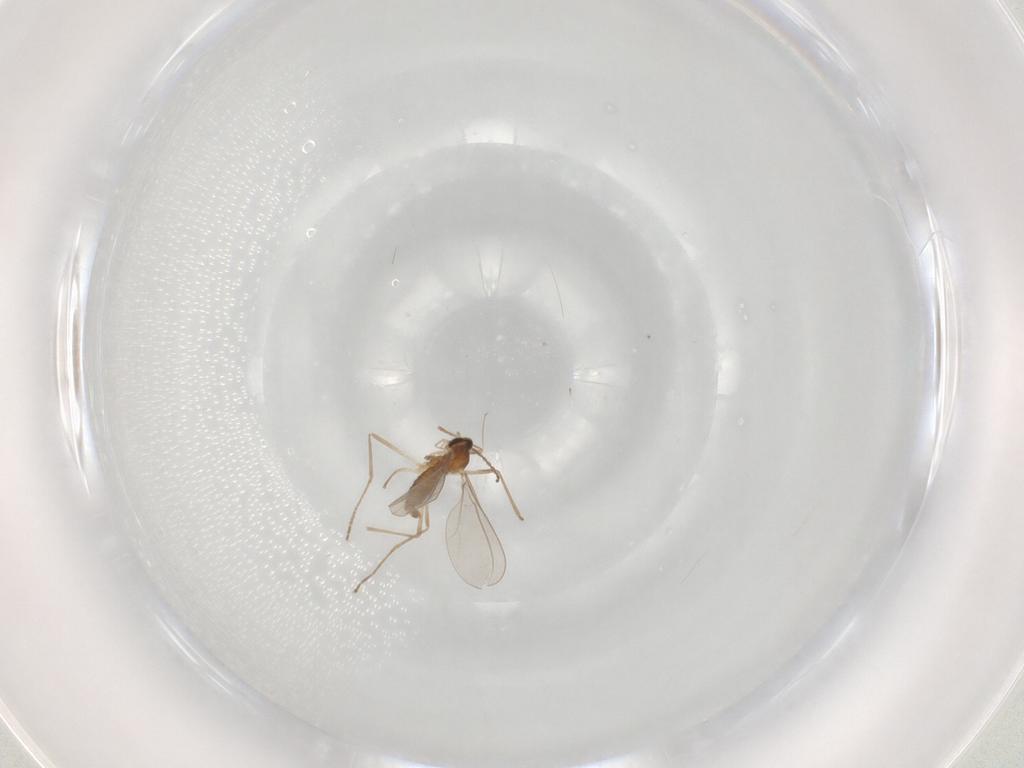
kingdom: Animalia
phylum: Arthropoda
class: Insecta
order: Diptera
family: Cecidomyiidae
